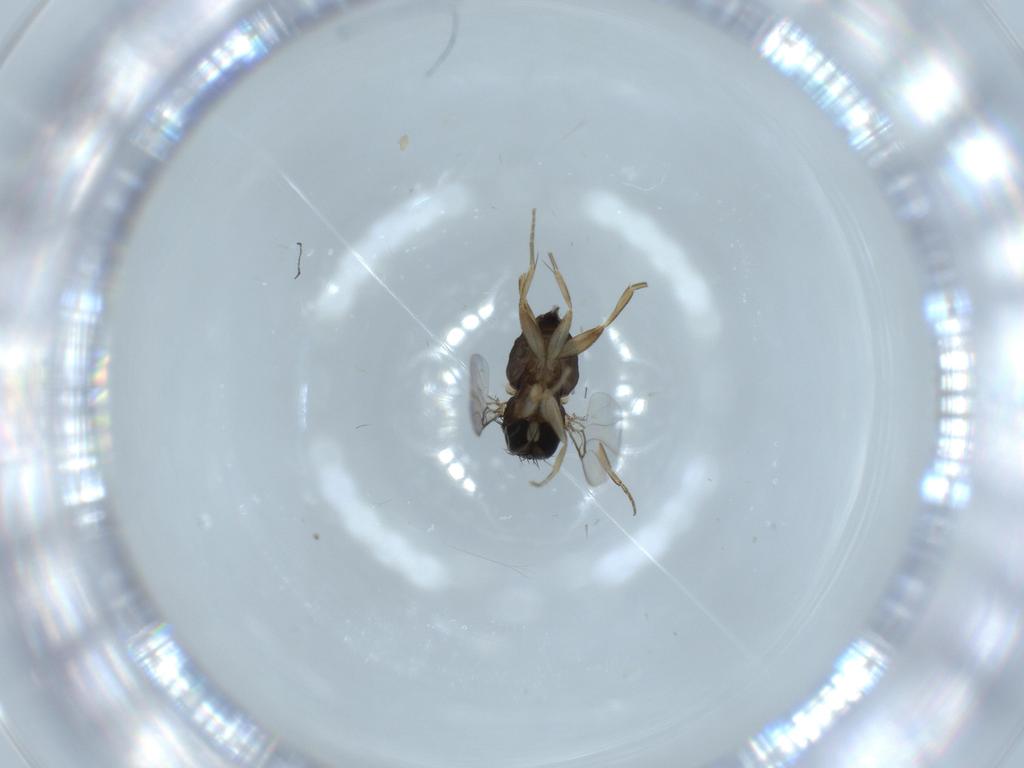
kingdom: Animalia
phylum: Arthropoda
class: Insecta
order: Diptera
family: Phoridae
